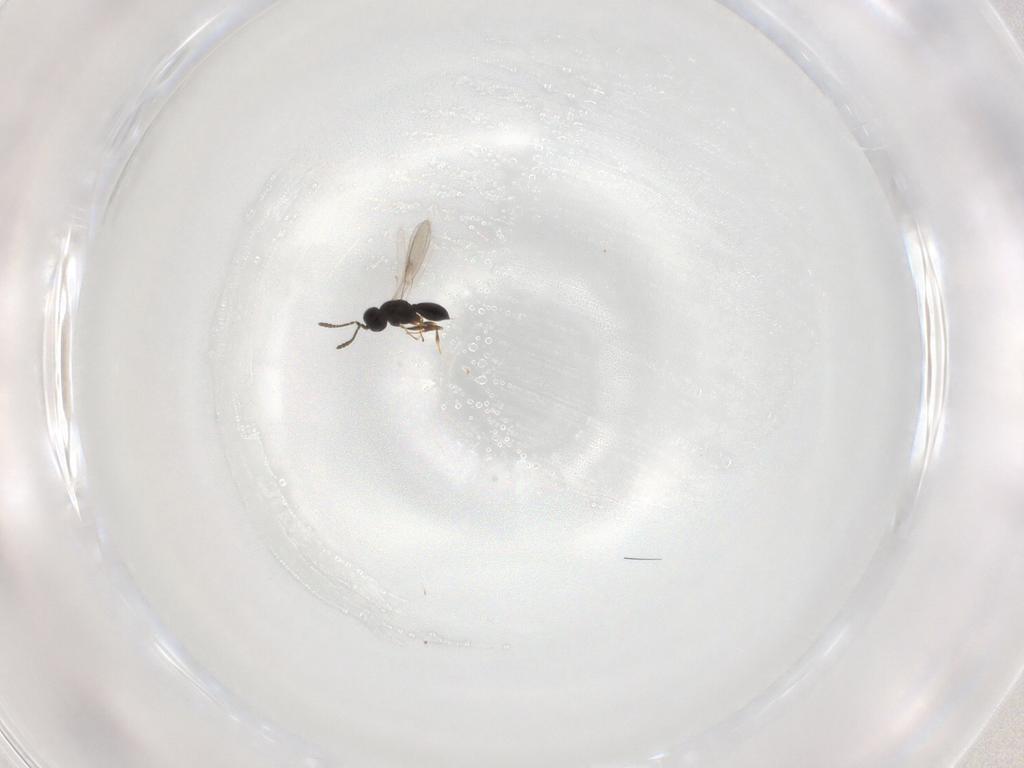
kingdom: Animalia
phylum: Arthropoda
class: Insecta
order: Hymenoptera
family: Scelionidae
